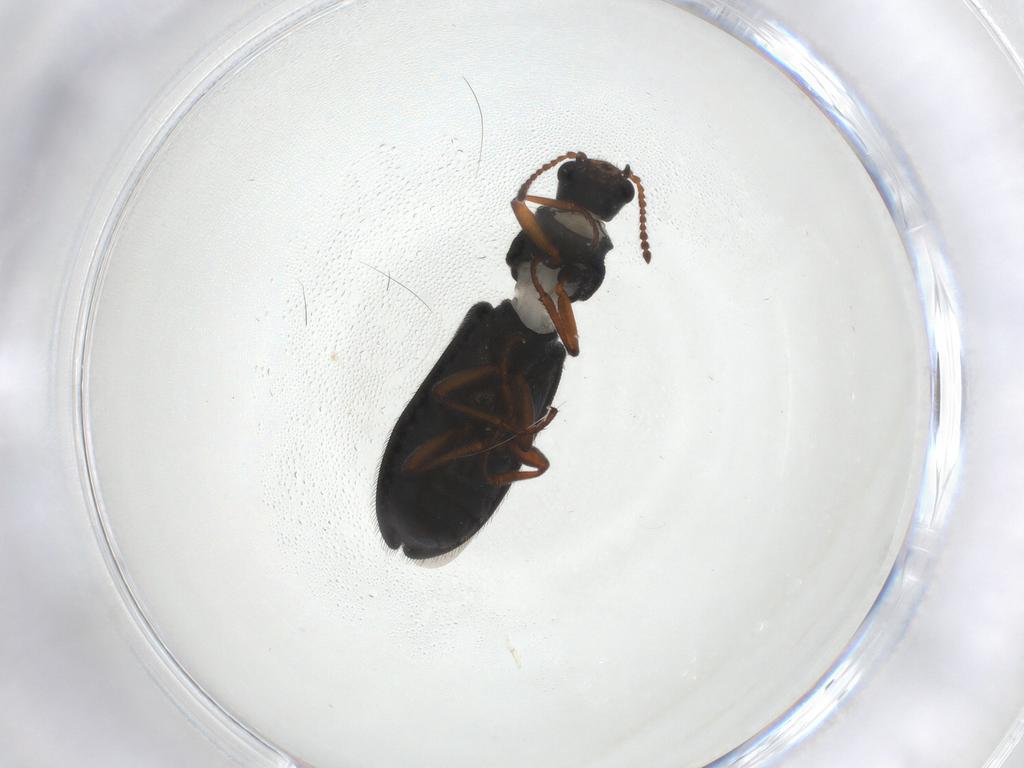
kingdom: Animalia
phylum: Arthropoda
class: Insecta
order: Coleoptera
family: Melyridae
